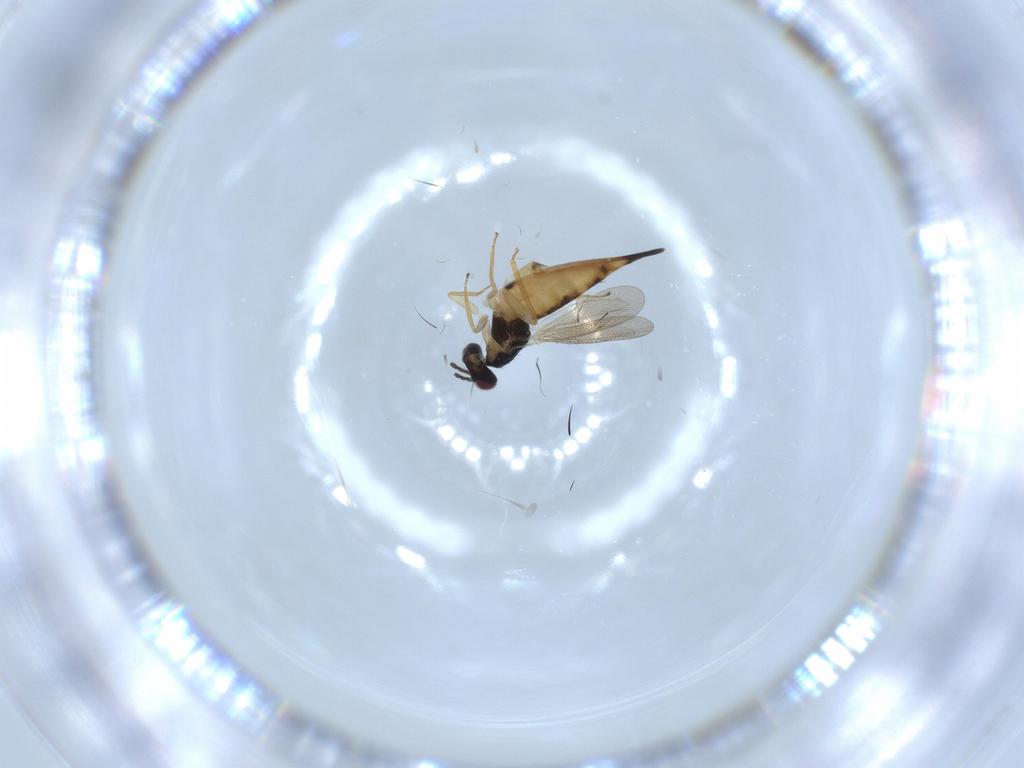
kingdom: Animalia
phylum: Arthropoda
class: Insecta
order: Hymenoptera
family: Eulophidae
